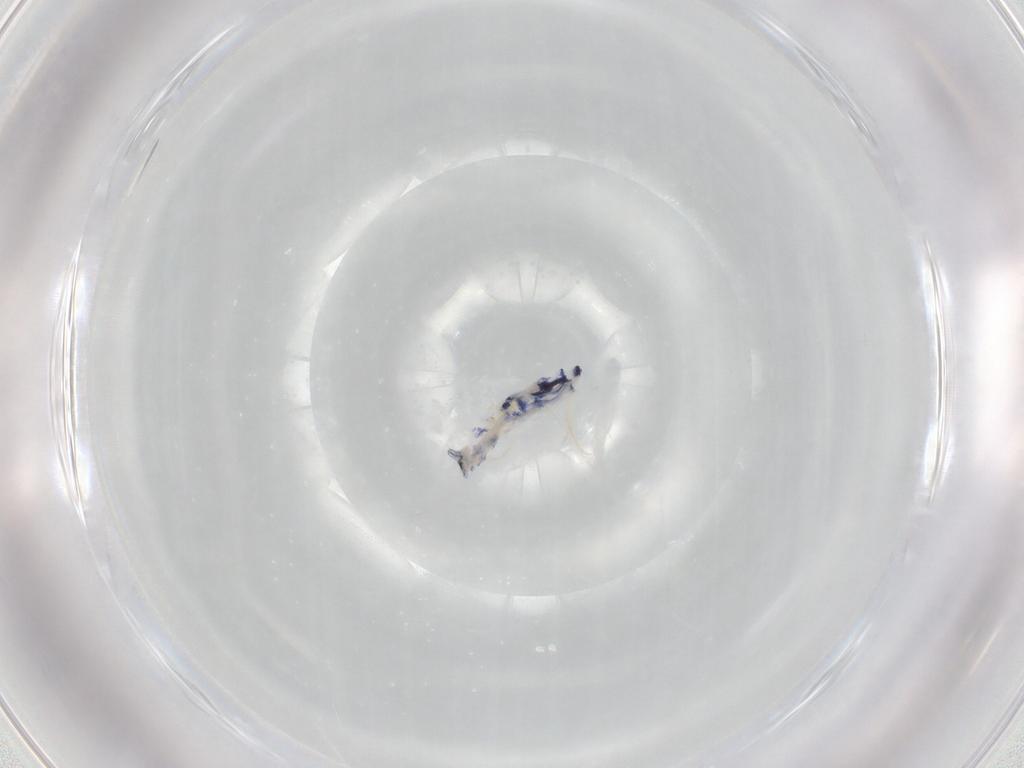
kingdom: Animalia
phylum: Arthropoda
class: Collembola
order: Entomobryomorpha
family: Entomobryidae
